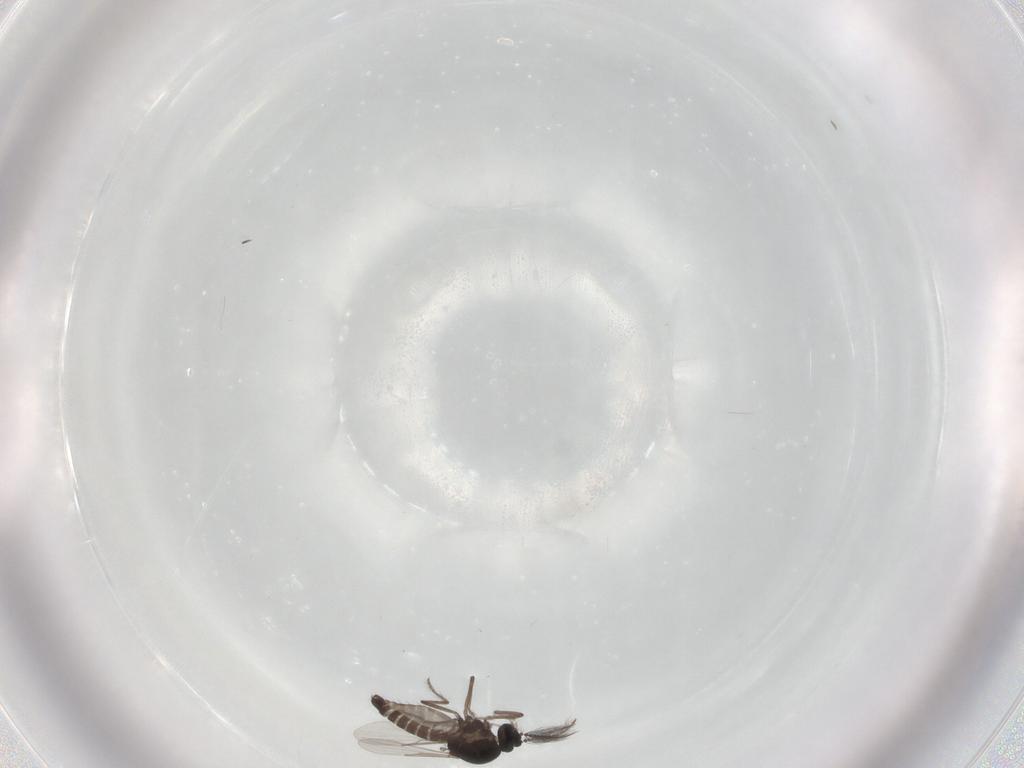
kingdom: Animalia
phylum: Arthropoda
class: Insecta
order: Diptera
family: Ceratopogonidae
